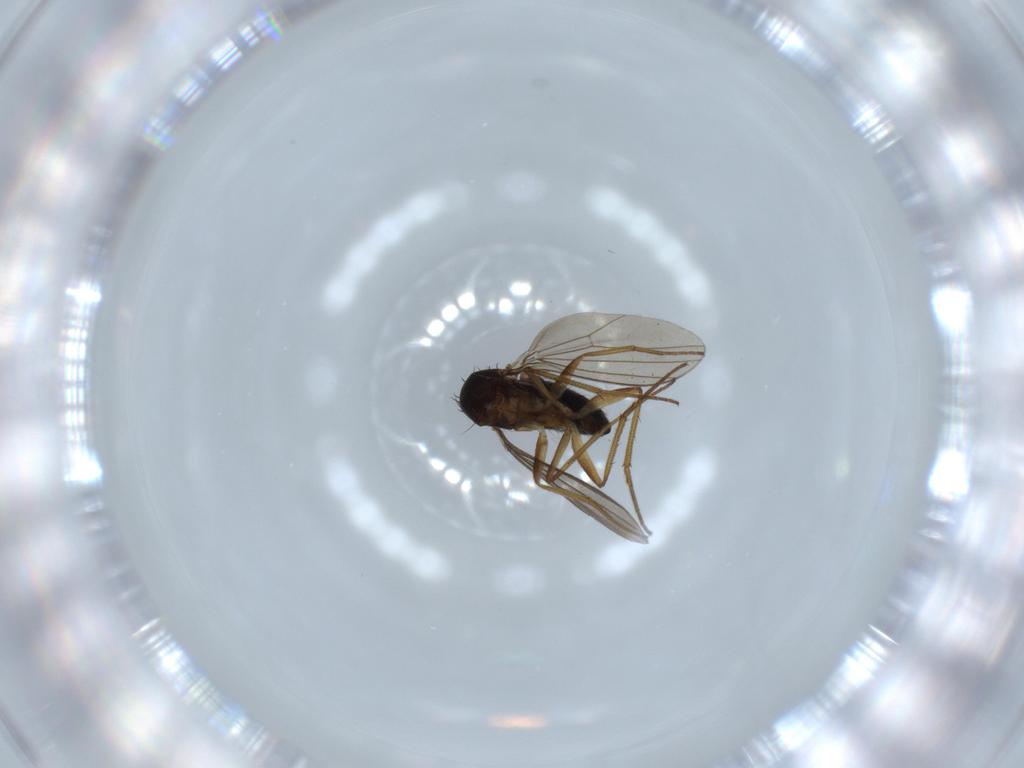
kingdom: Animalia
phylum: Arthropoda
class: Insecta
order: Diptera
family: Dolichopodidae
